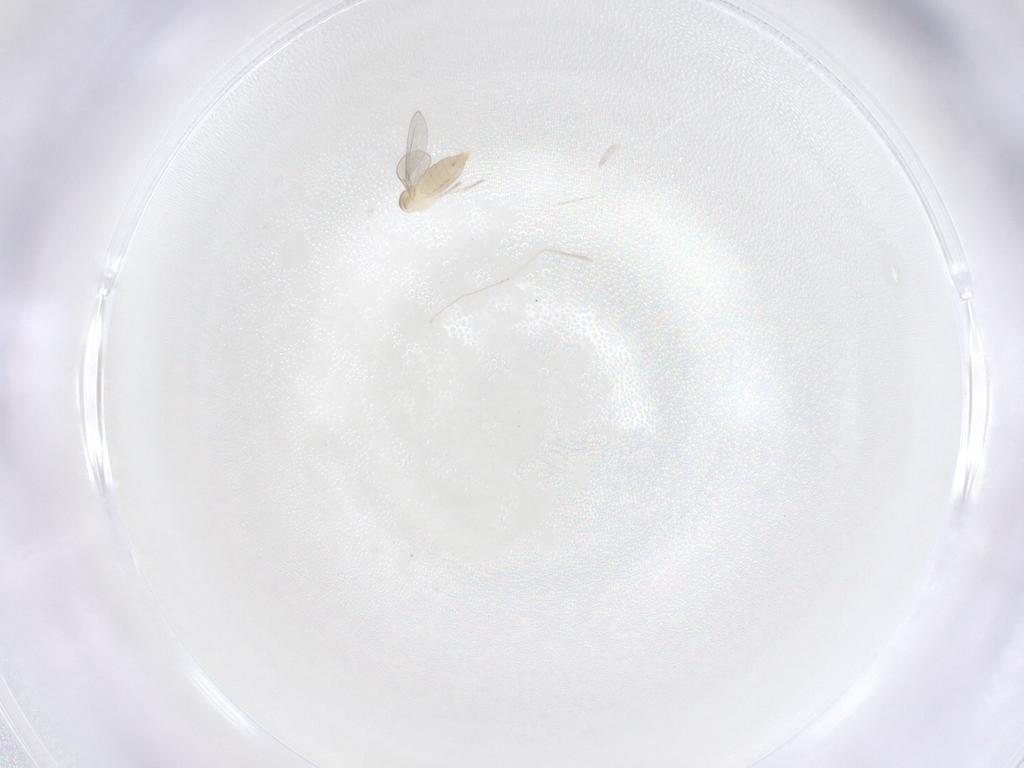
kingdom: Animalia
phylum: Arthropoda
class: Insecta
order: Diptera
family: Cecidomyiidae
